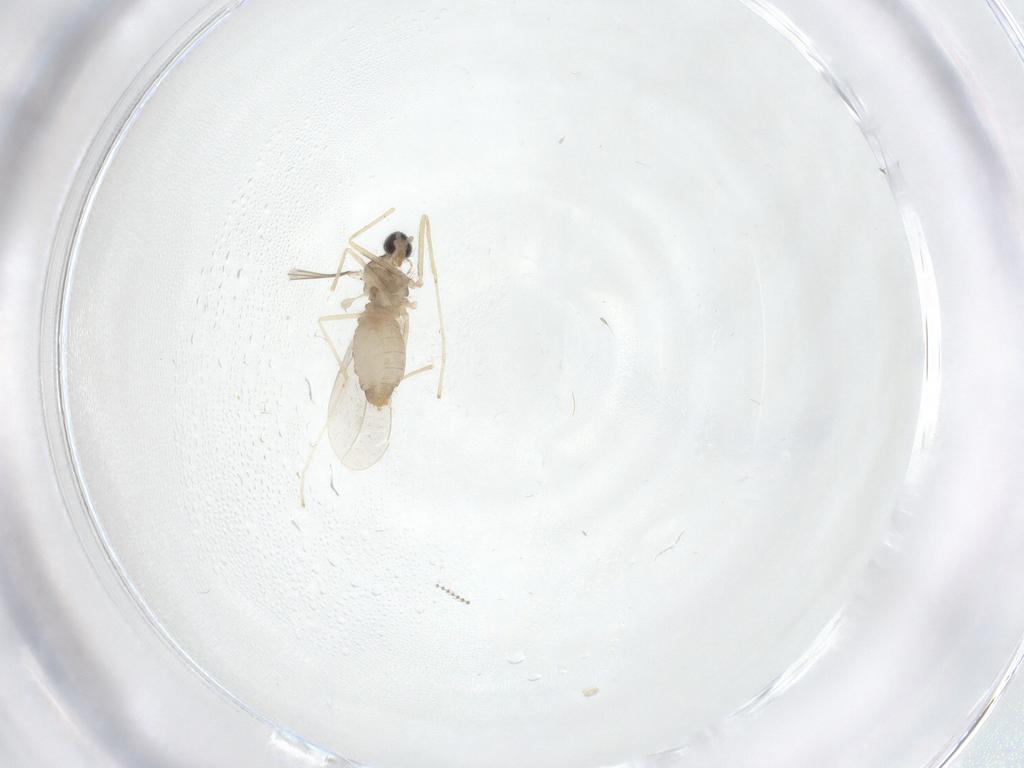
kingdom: Animalia
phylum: Arthropoda
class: Insecta
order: Diptera
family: Cecidomyiidae
